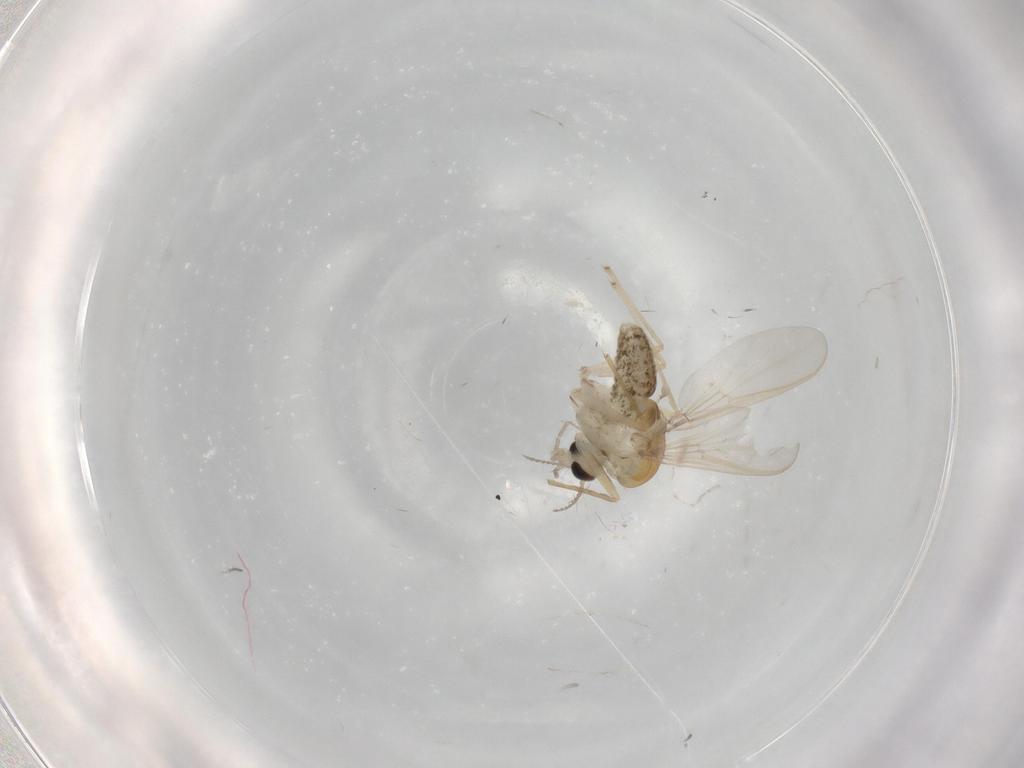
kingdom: Animalia
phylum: Arthropoda
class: Insecta
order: Diptera
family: Chironomidae
